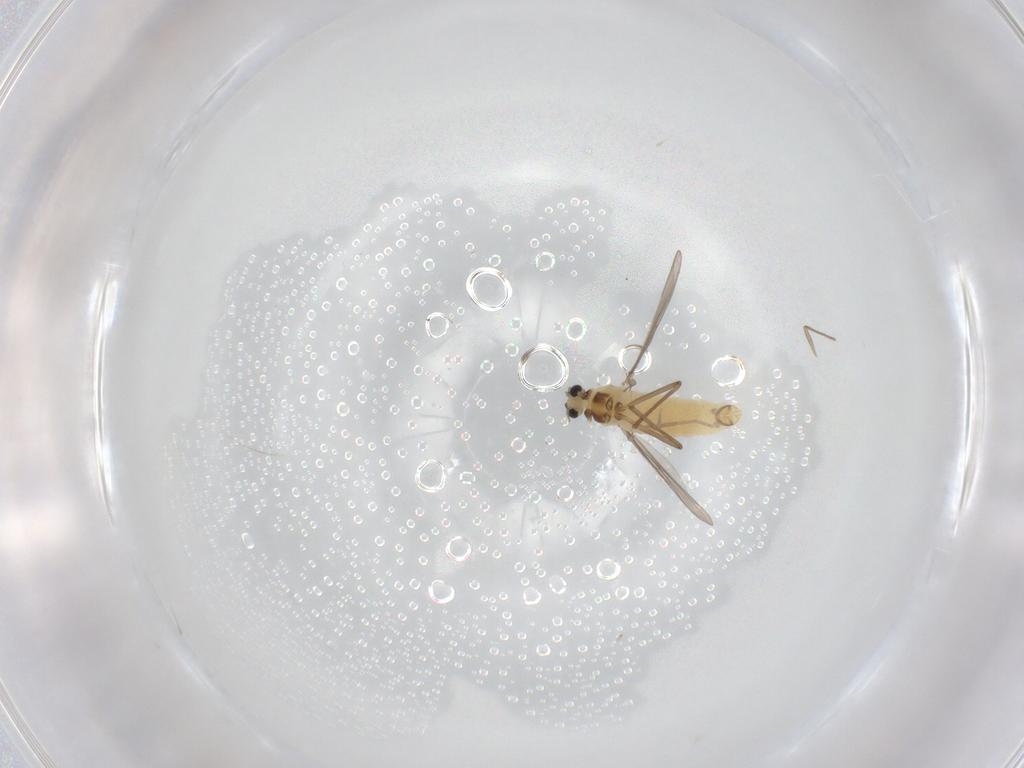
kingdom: Animalia
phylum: Arthropoda
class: Insecta
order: Diptera
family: Chironomidae
